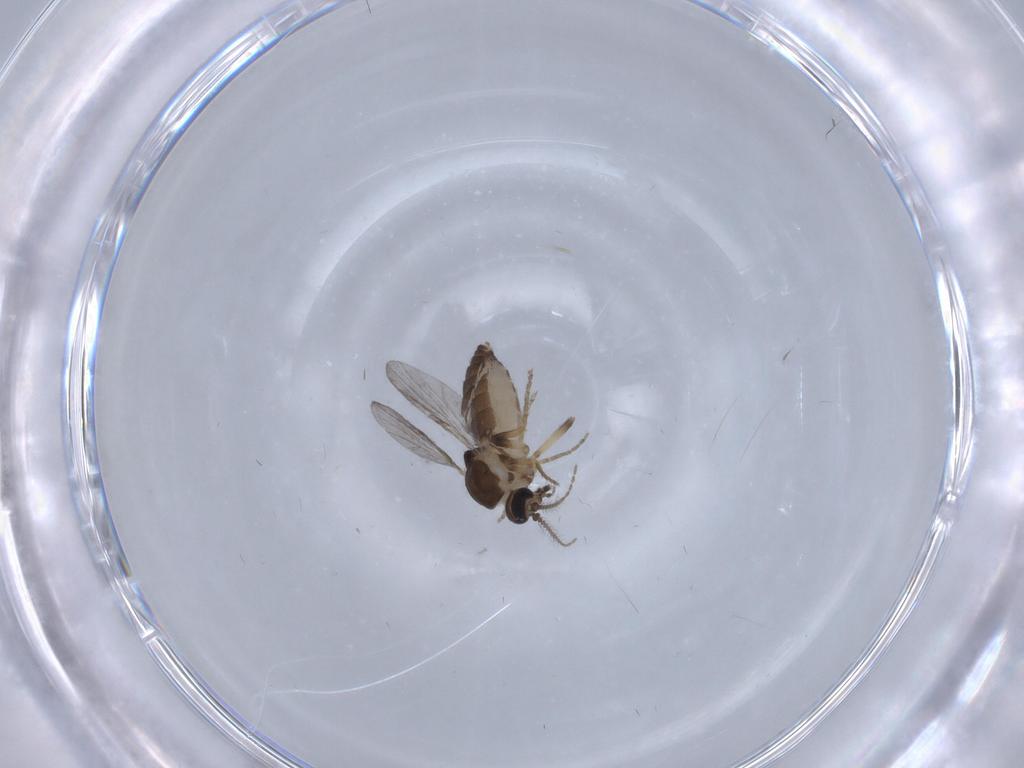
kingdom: Animalia
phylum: Arthropoda
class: Insecta
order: Diptera
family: Ceratopogonidae
